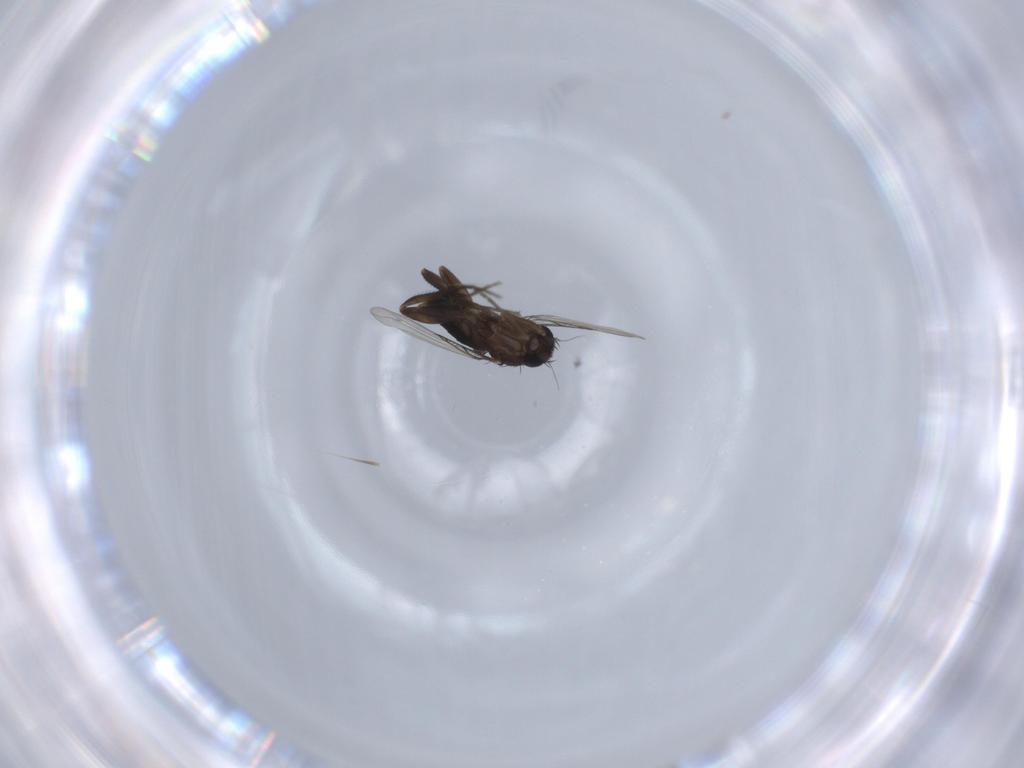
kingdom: Animalia
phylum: Arthropoda
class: Insecta
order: Diptera
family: Phoridae
